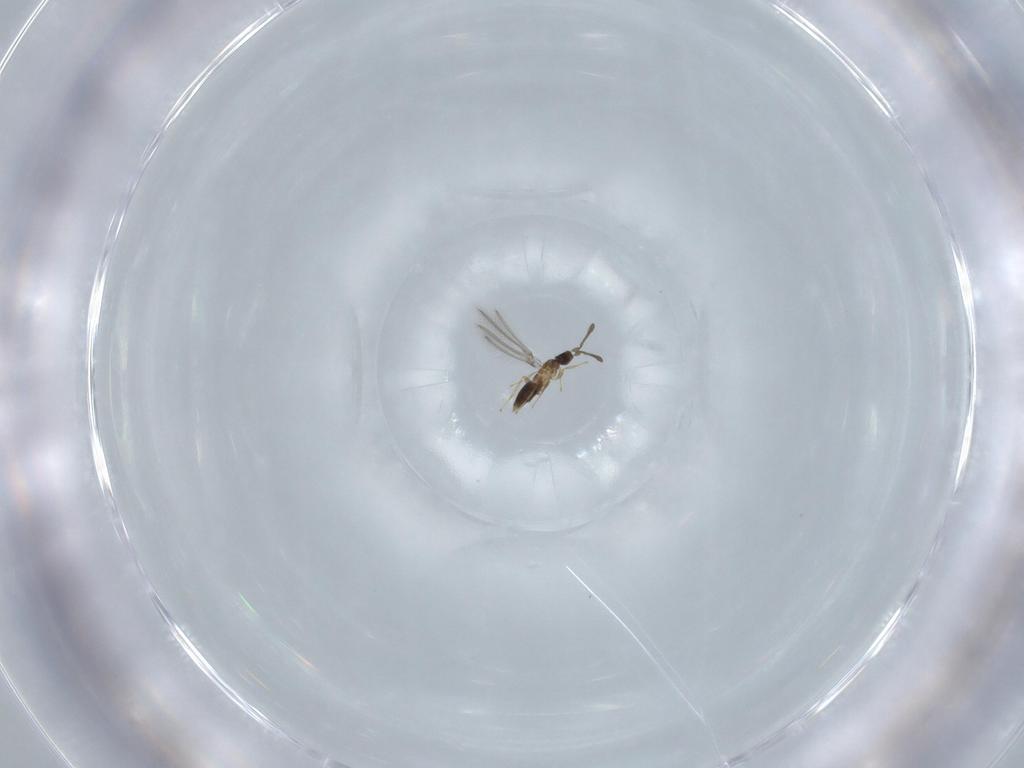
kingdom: Animalia
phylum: Arthropoda
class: Insecta
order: Hymenoptera
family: Mymaridae
